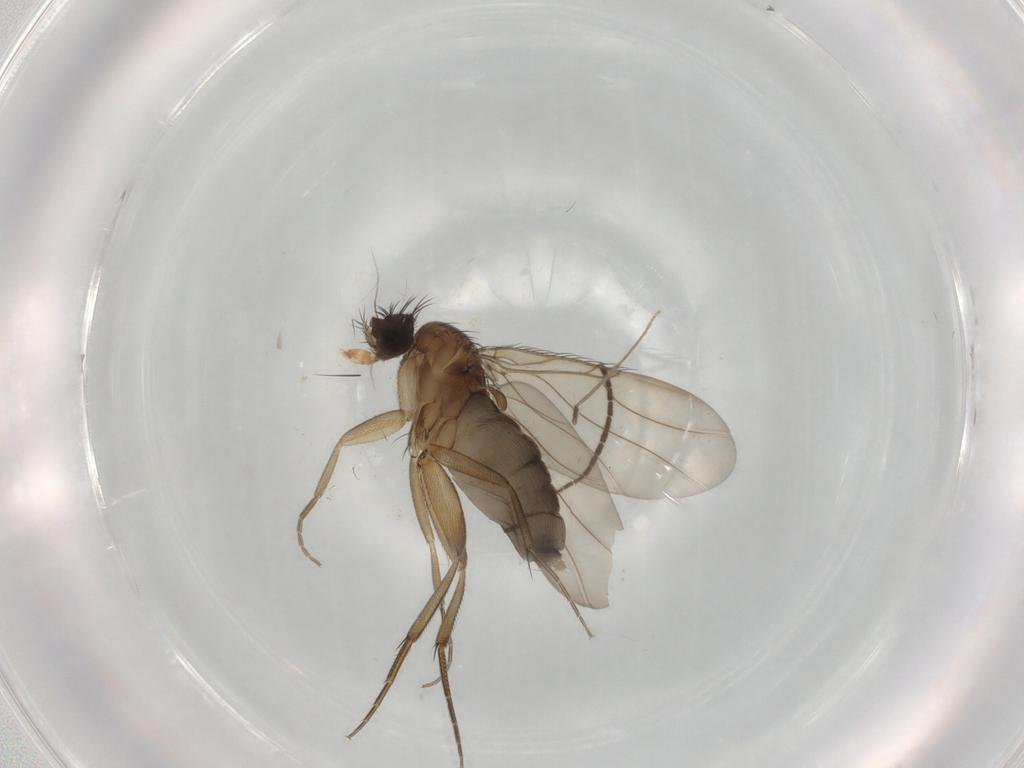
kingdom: Animalia
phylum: Arthropoda
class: Insecta
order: Diptera
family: Phoridae
